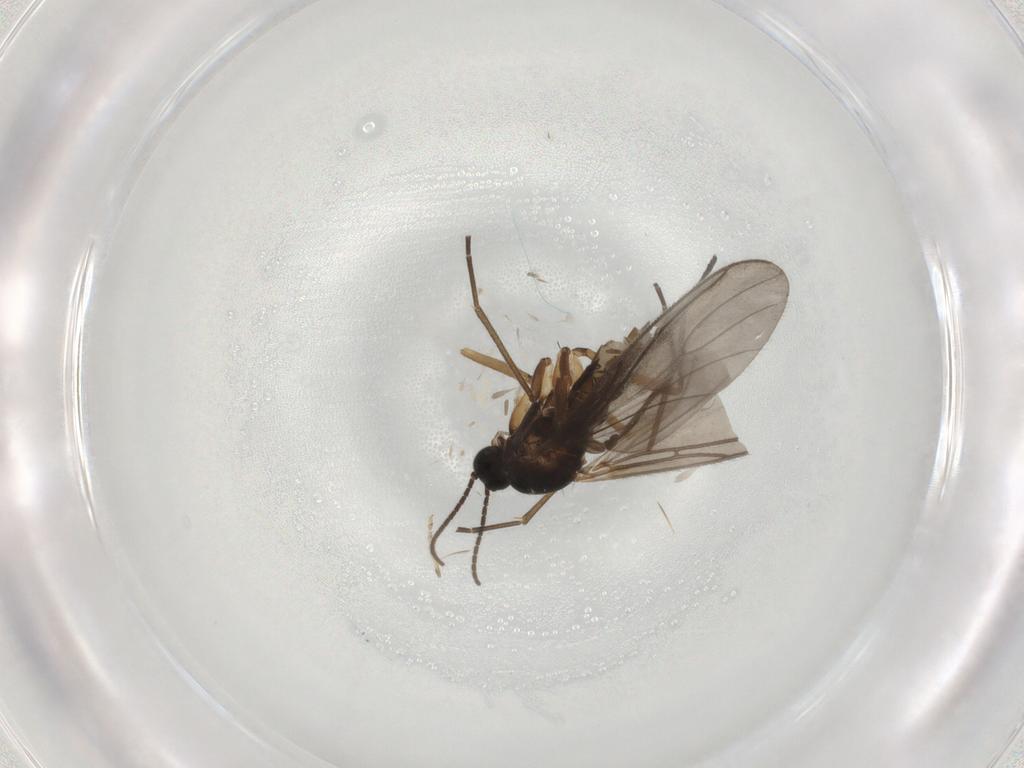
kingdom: Animalia
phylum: Arthropoda
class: Insecta
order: Diptera
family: Sciaridae
